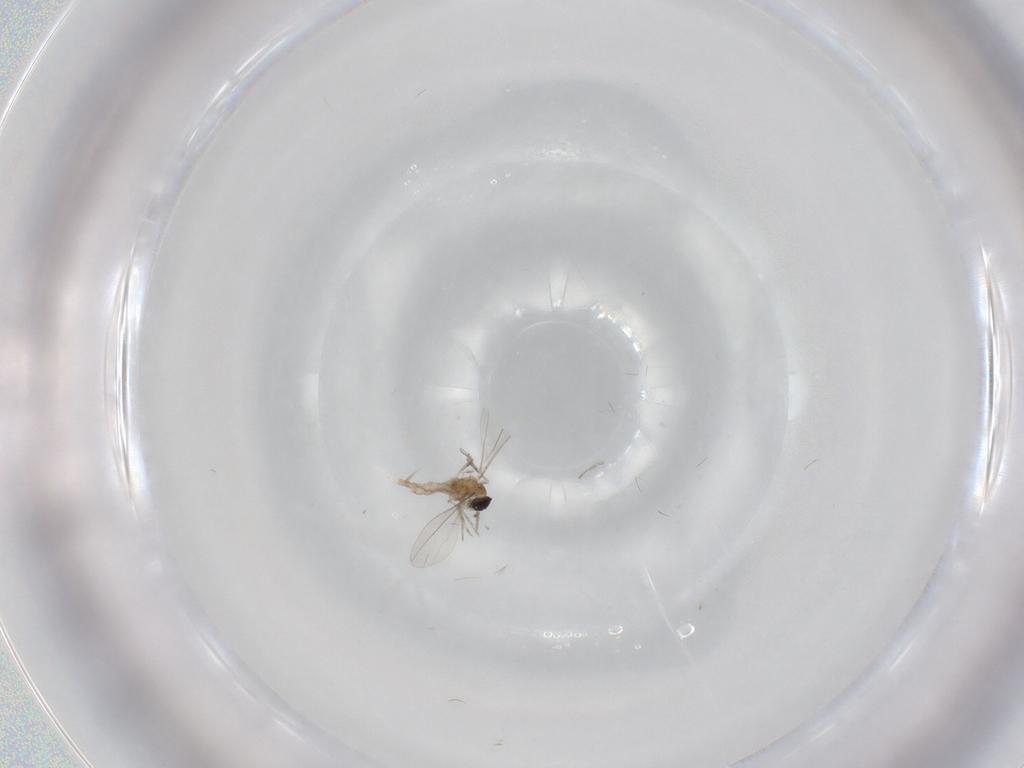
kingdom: Animalia
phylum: Arthropoda
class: Insecta
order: Diptera
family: Cecidomyiidae
